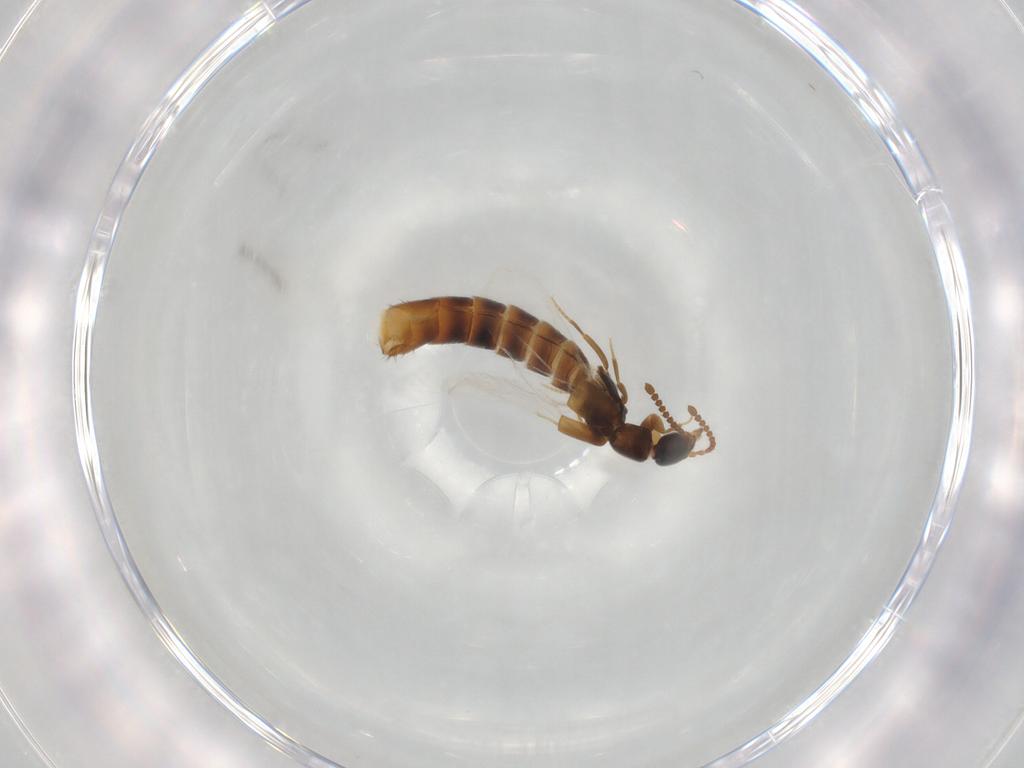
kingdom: Animalia
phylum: Arthropoda
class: Insecta
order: Coleoptera
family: Staphylinidae
